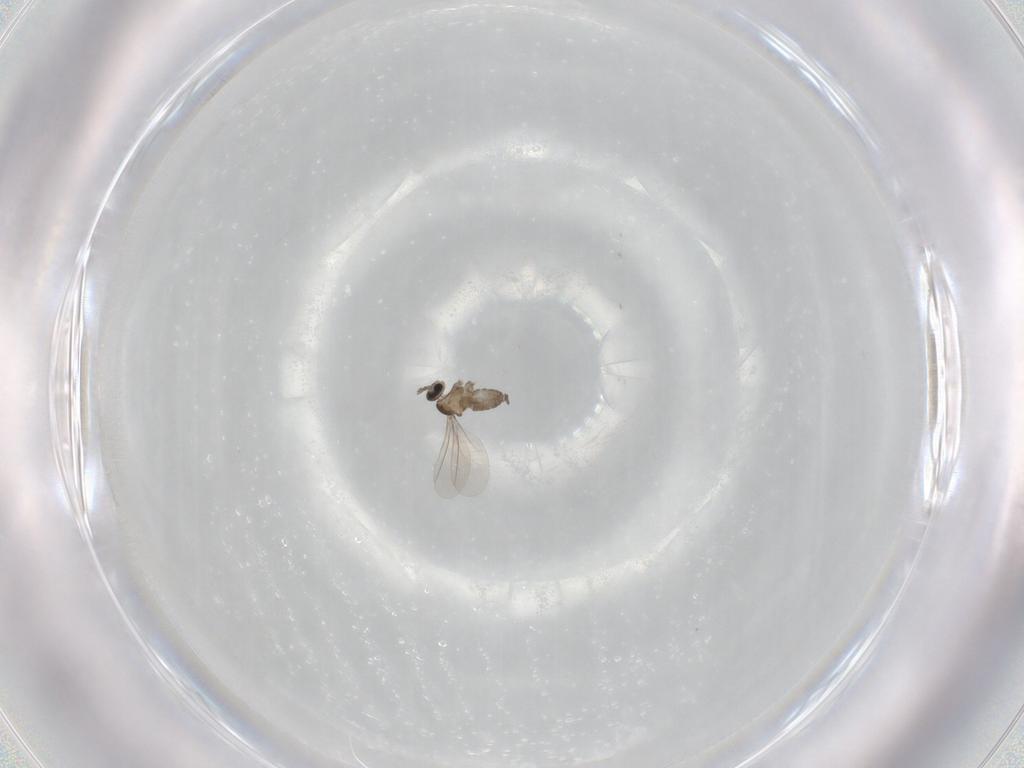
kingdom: Animalia
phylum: Arthropoda
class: Insecta
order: Diptera
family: Cecidomyiidae
